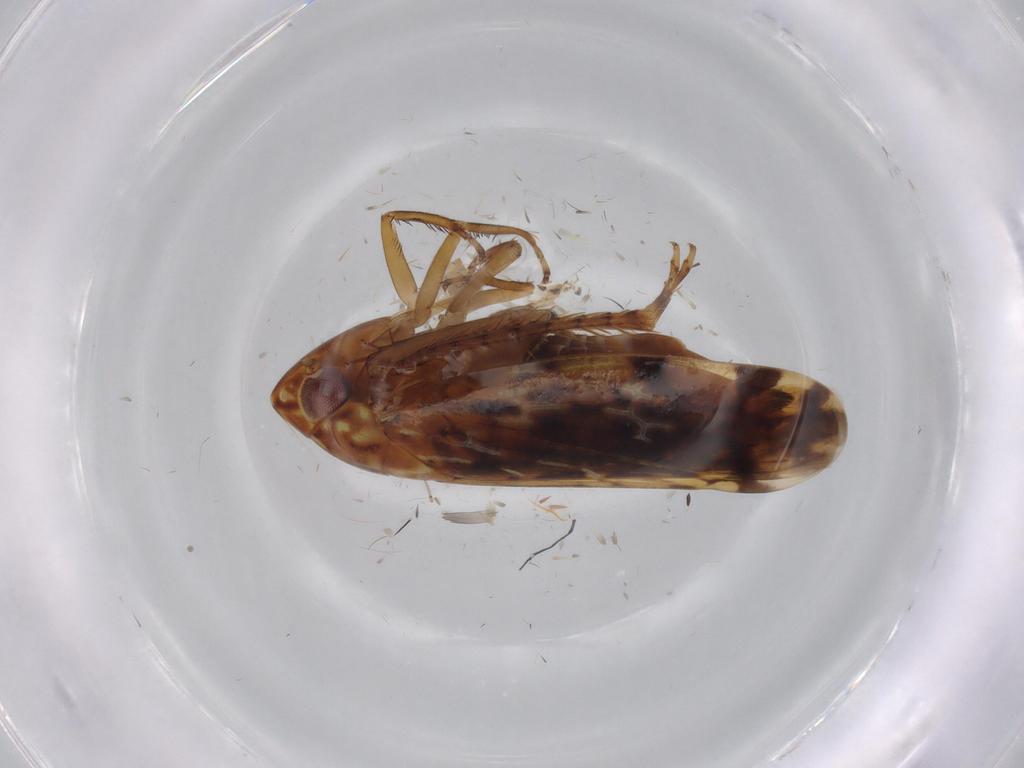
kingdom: Animalia
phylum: Arthropoda
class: Insecta
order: Hemiptera
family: Cicadellidae
